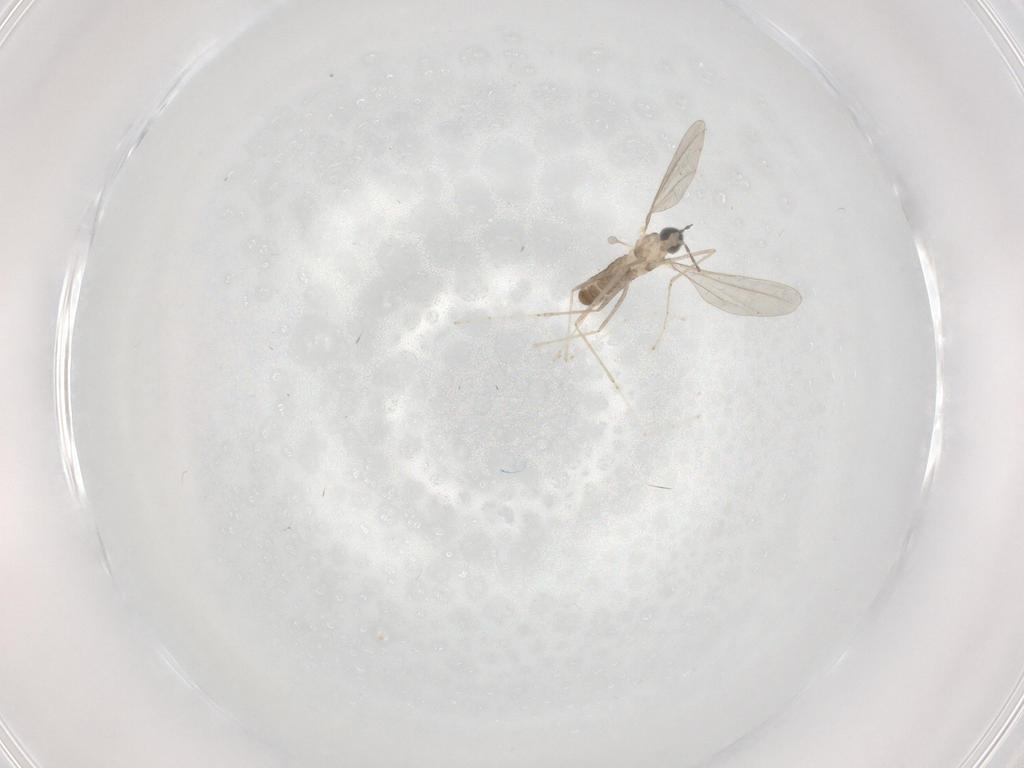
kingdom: Animalia
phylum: Arthropoda
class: Insecta
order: Diptera
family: Cecidomyiidae
